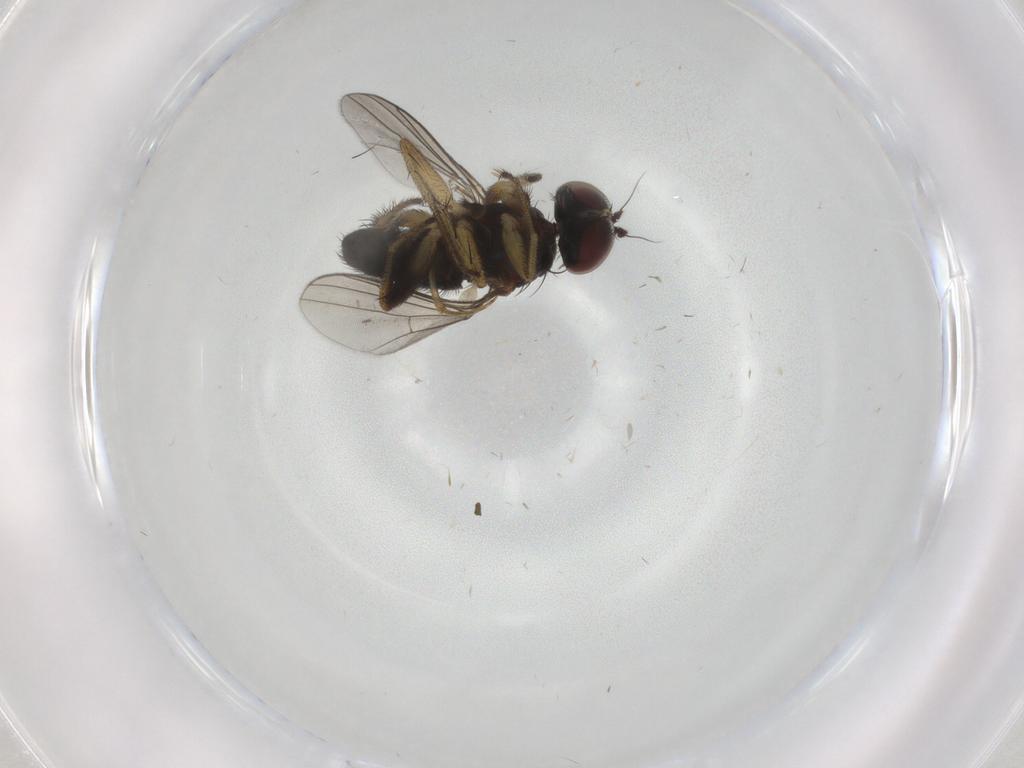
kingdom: Animalia
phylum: Arthropoda
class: Insecta
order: Diptera
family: Dolichopodidae
